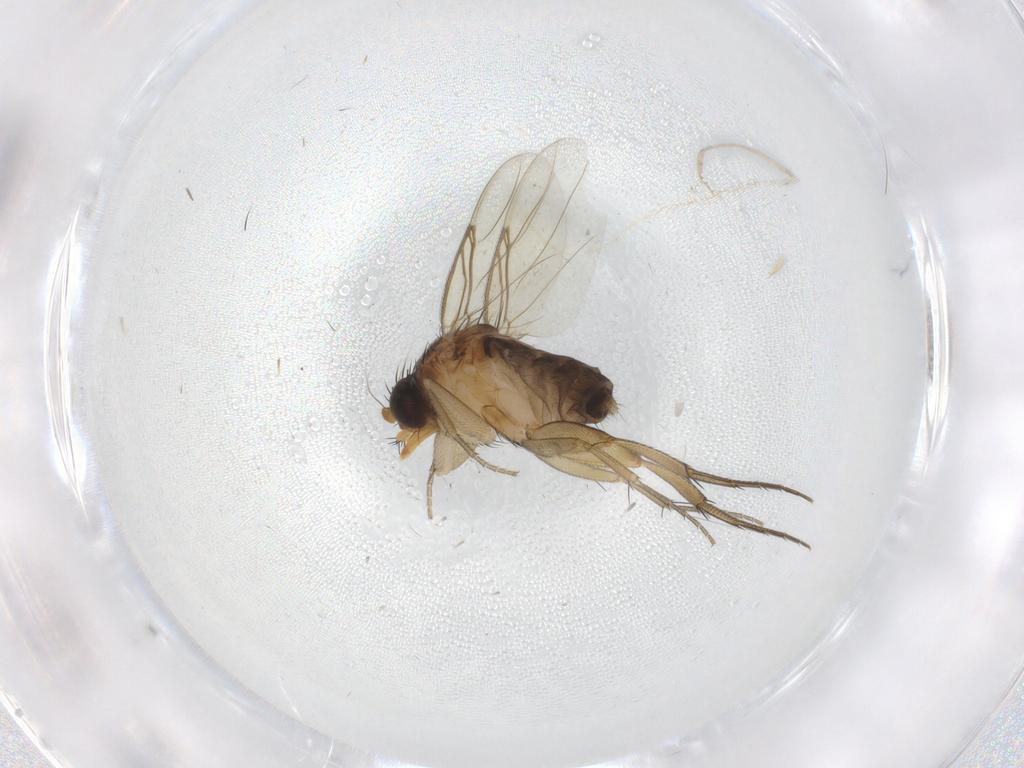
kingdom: Animalia
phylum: Arthropoda
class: Insecta
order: Diptera
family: Phoridae
